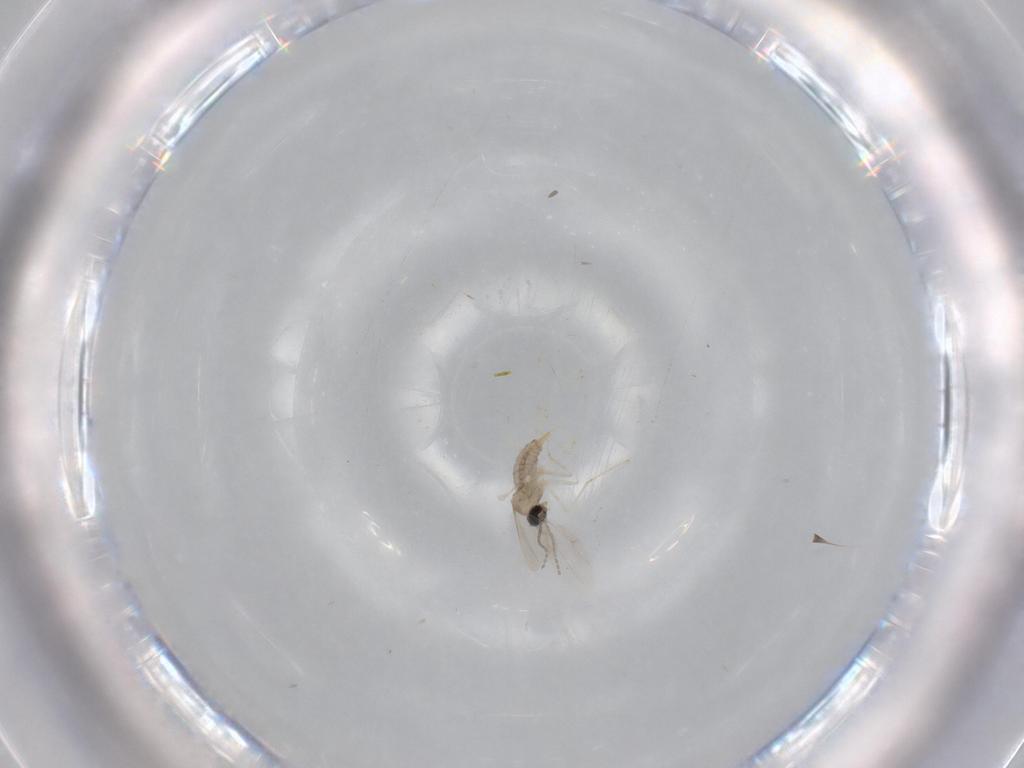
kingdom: Animalia
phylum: Arthropoda
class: Insecta
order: Diptera
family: Cecidomyiidae
